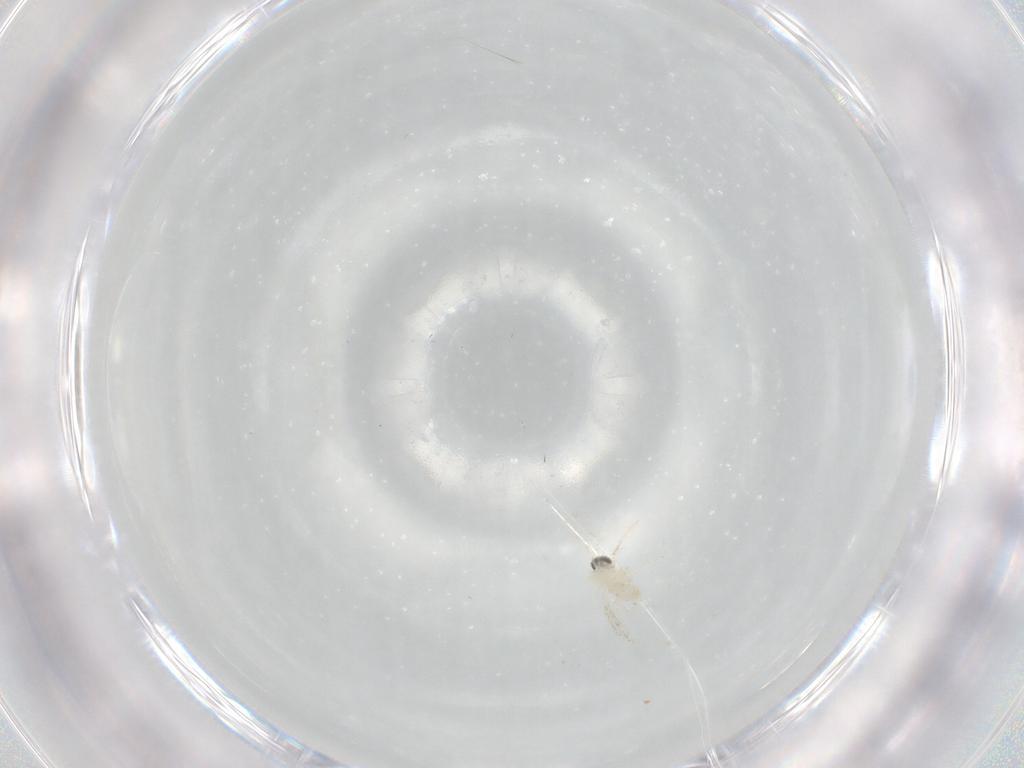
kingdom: Animalia
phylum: Arthropoda
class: Insecta
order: Diptera
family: Cecidomyiidae
